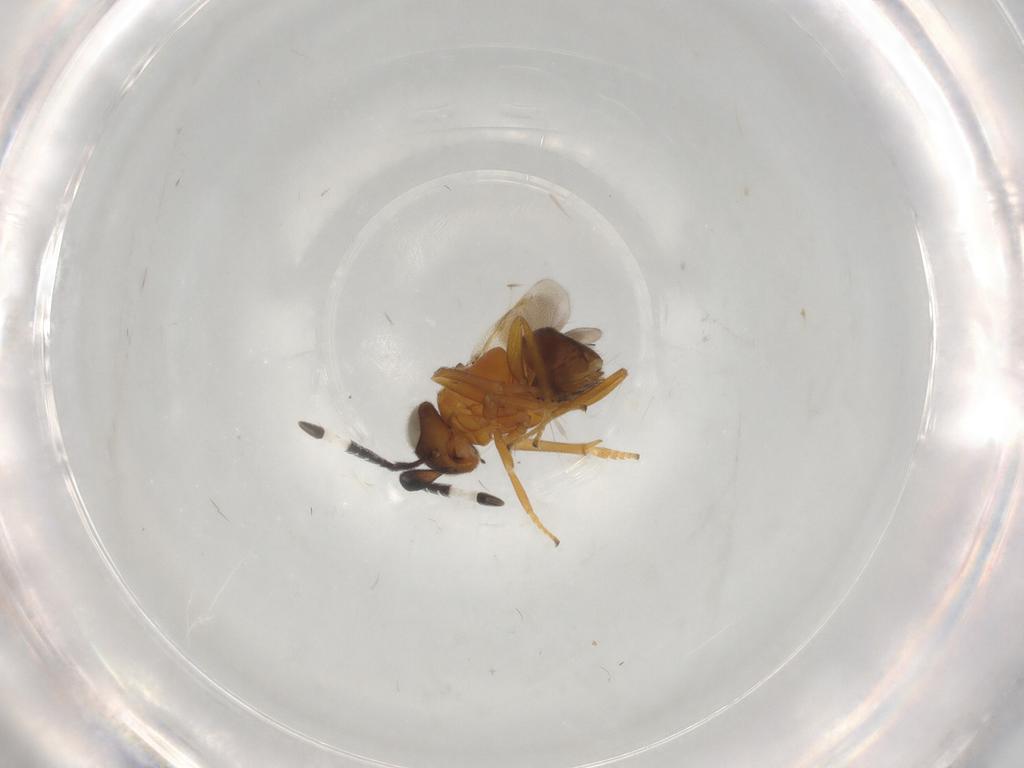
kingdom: Animalia
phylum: Arthropoda
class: Insecta
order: Hymenoptera
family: Encyrtidae
